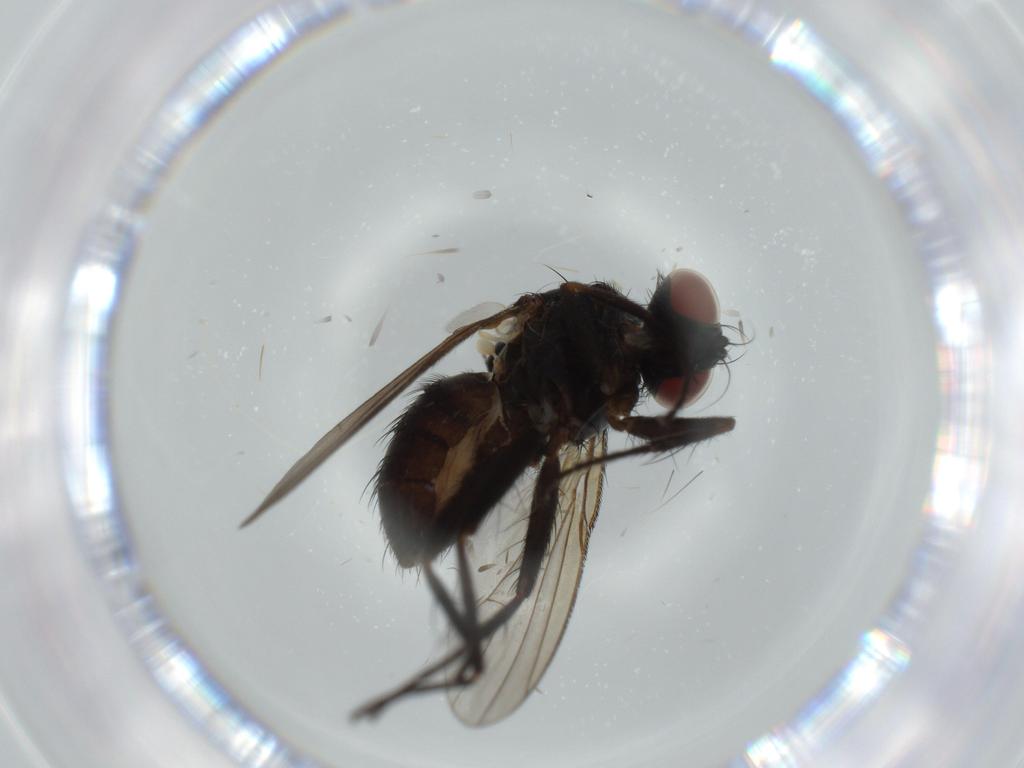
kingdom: Animalia
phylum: Arthropoda
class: Insecta
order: Diptera
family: Muscidae
